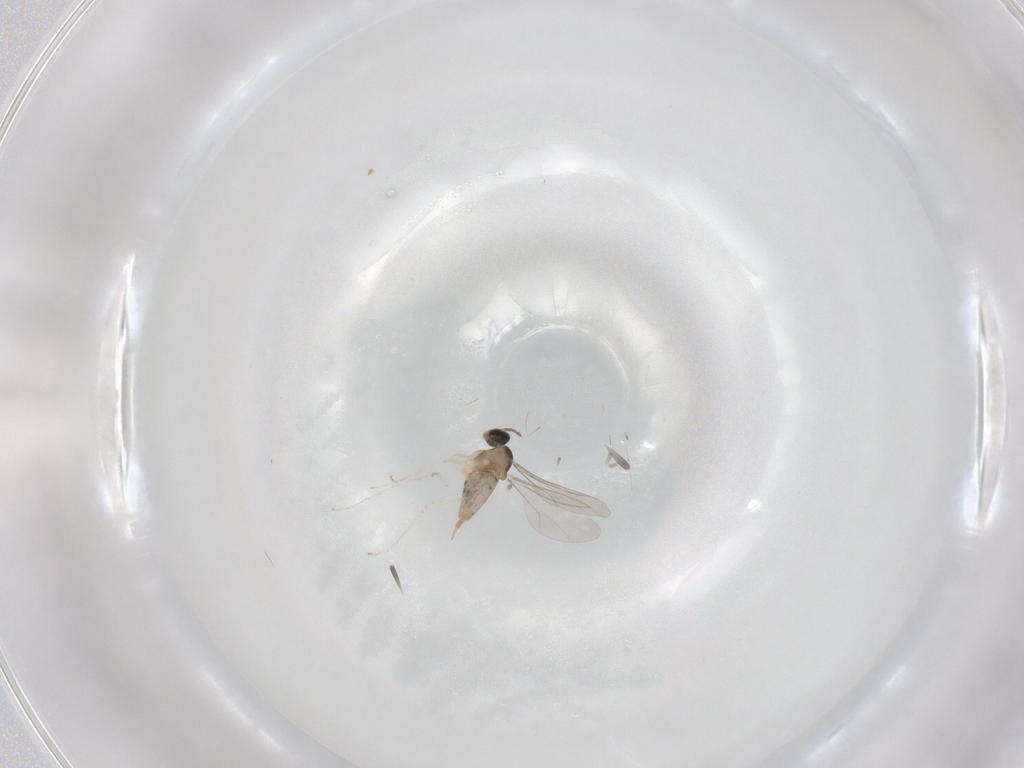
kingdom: Animalia
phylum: Arthropoda
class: Insecta
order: Diptera
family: Cecidomyiidae
